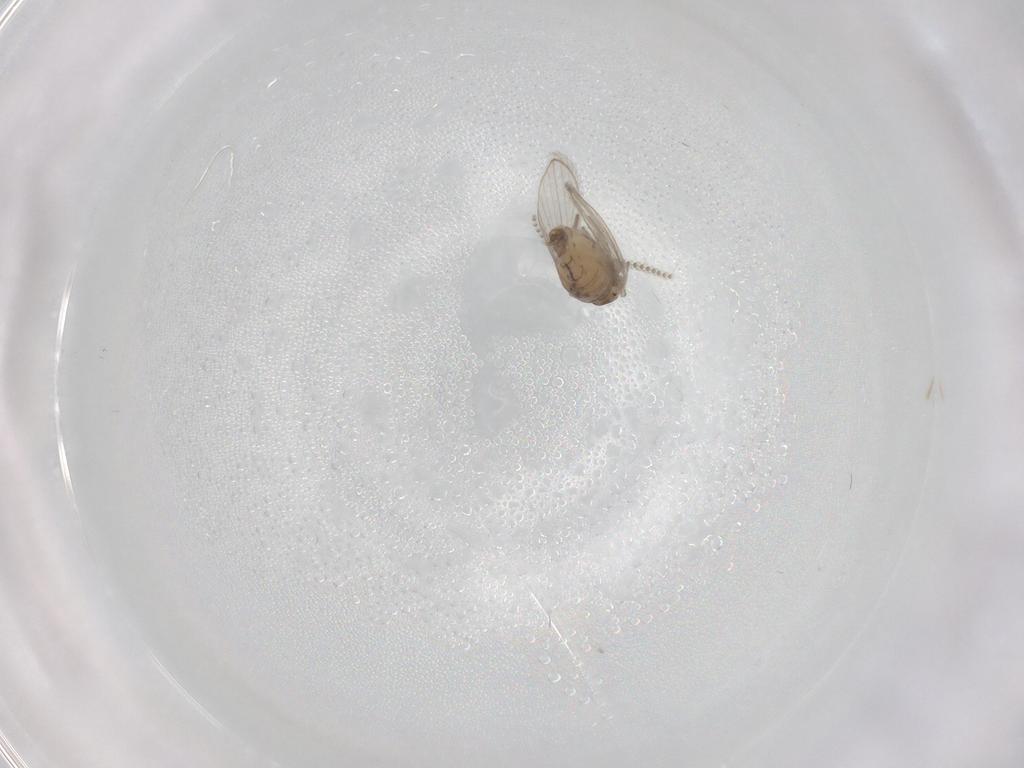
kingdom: Animalia
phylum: Arthropoda
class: Insecta
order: Diptera
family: Psychodidae
